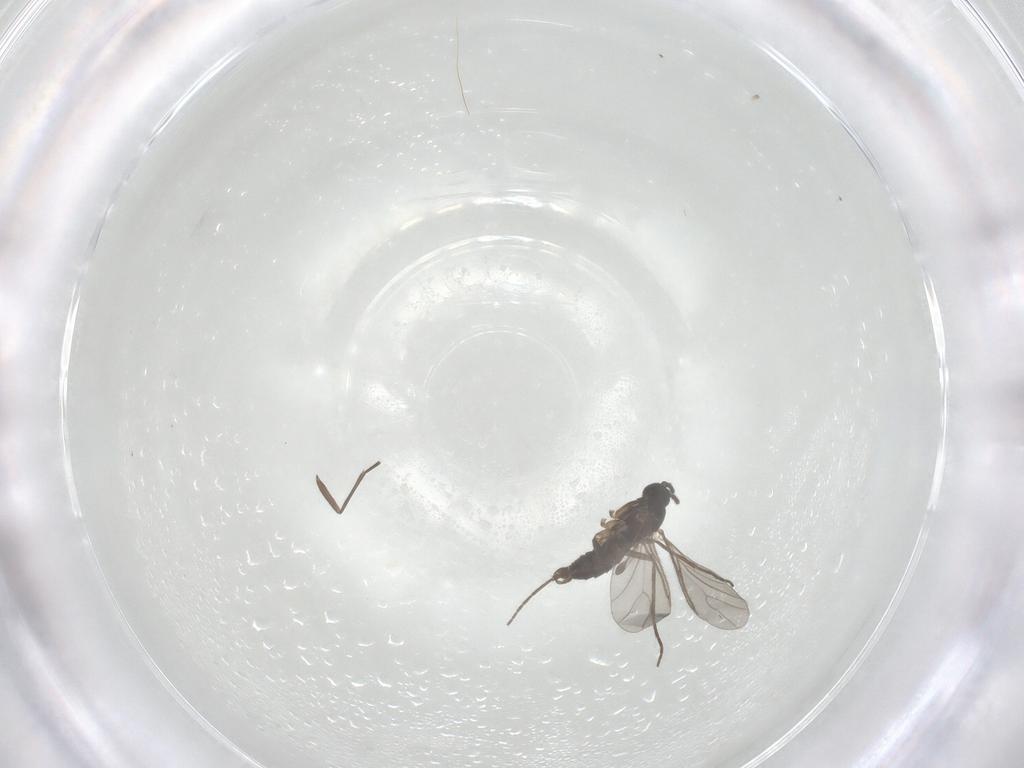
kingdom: Animalia
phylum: Arthropoda
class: Insecta
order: Diptera
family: Sciaridae
